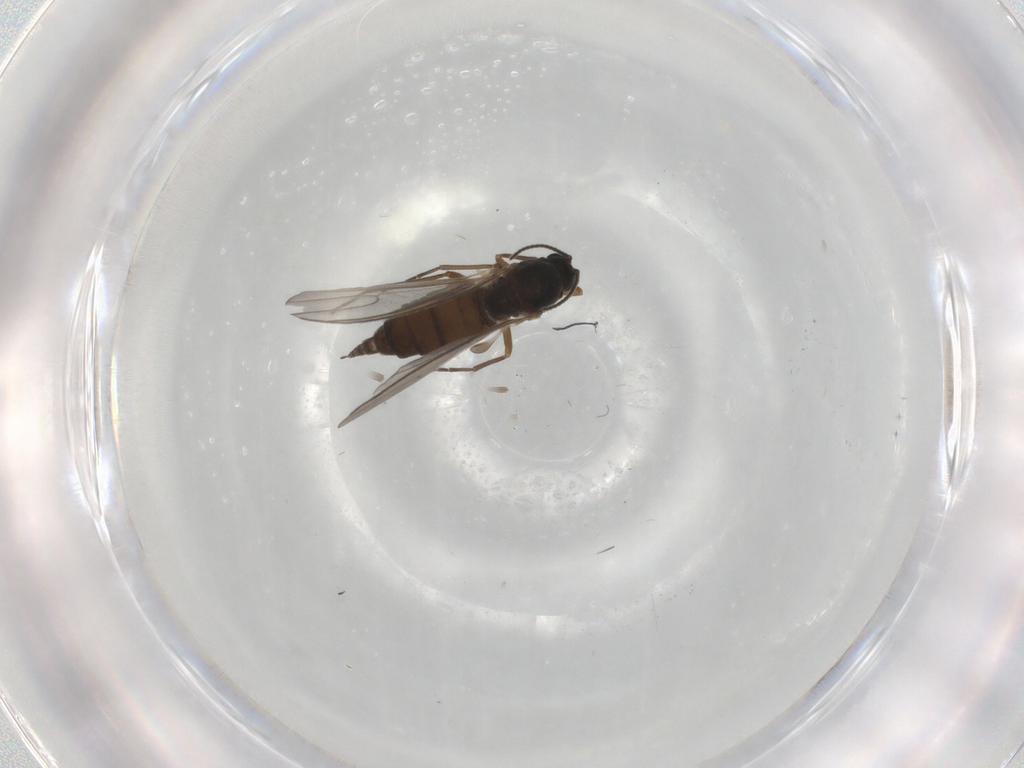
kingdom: Animalia
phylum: Arthropoda
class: Insecta
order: Diptera
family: Sciaridae
